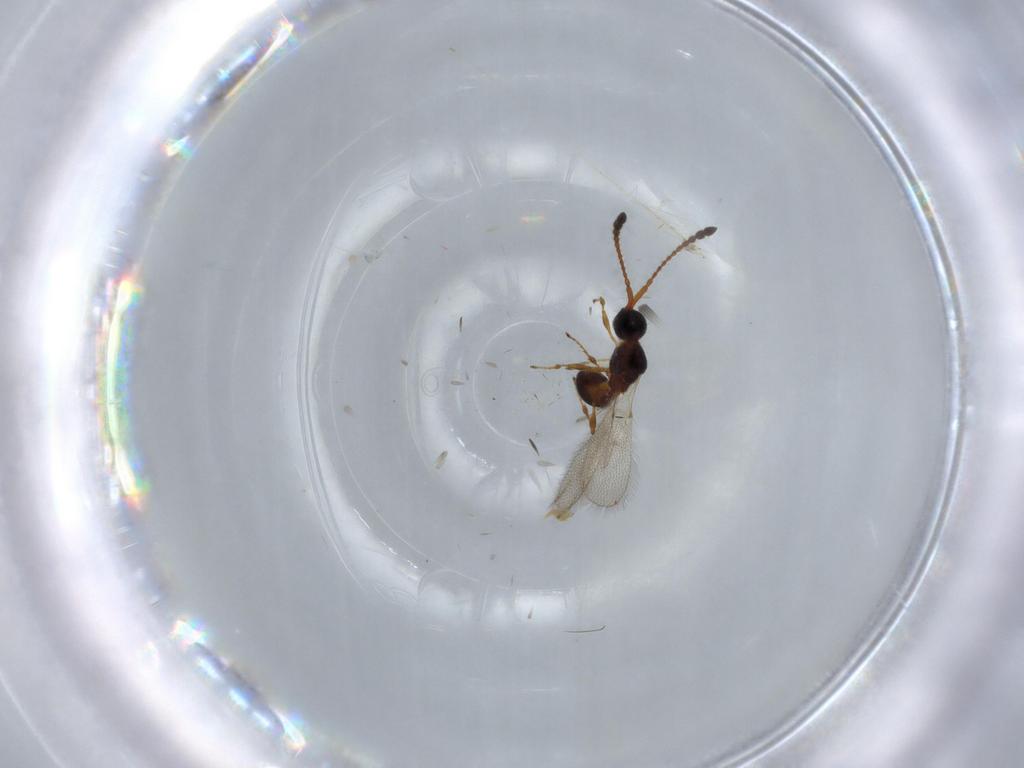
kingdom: Animalia
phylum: Arthropoda
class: Insecta
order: Hymenoptera
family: Diapriidae
